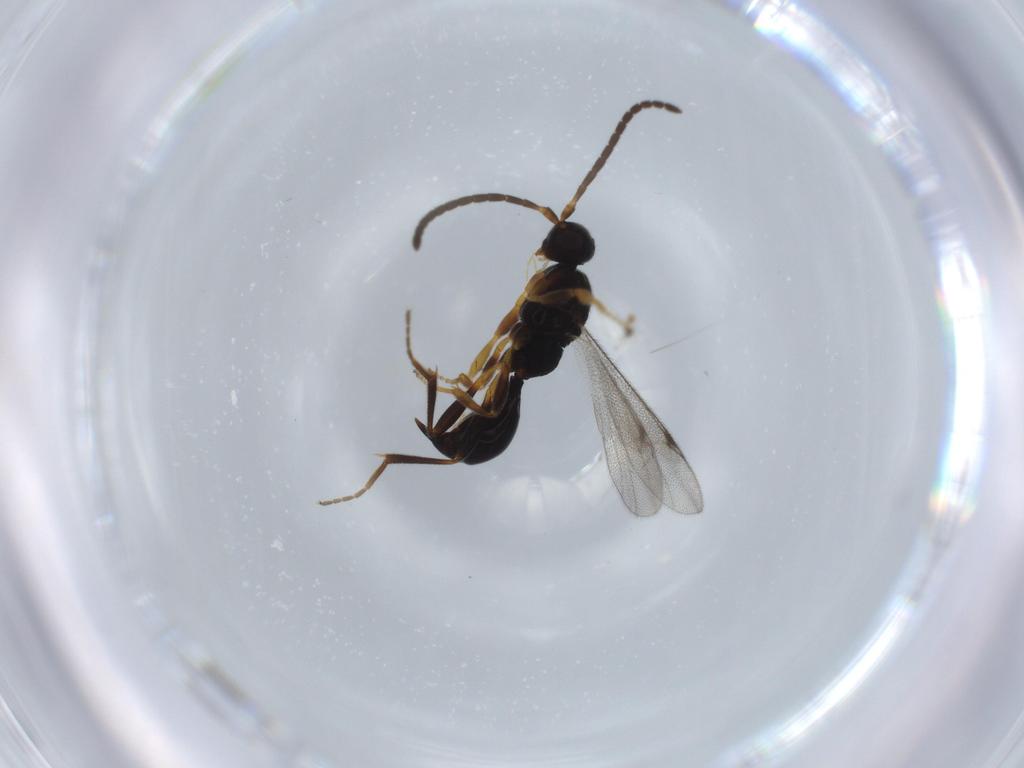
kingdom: Animalia
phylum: Arthropoda
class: Insecta
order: Hymenoptera
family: Proctotrupidae
